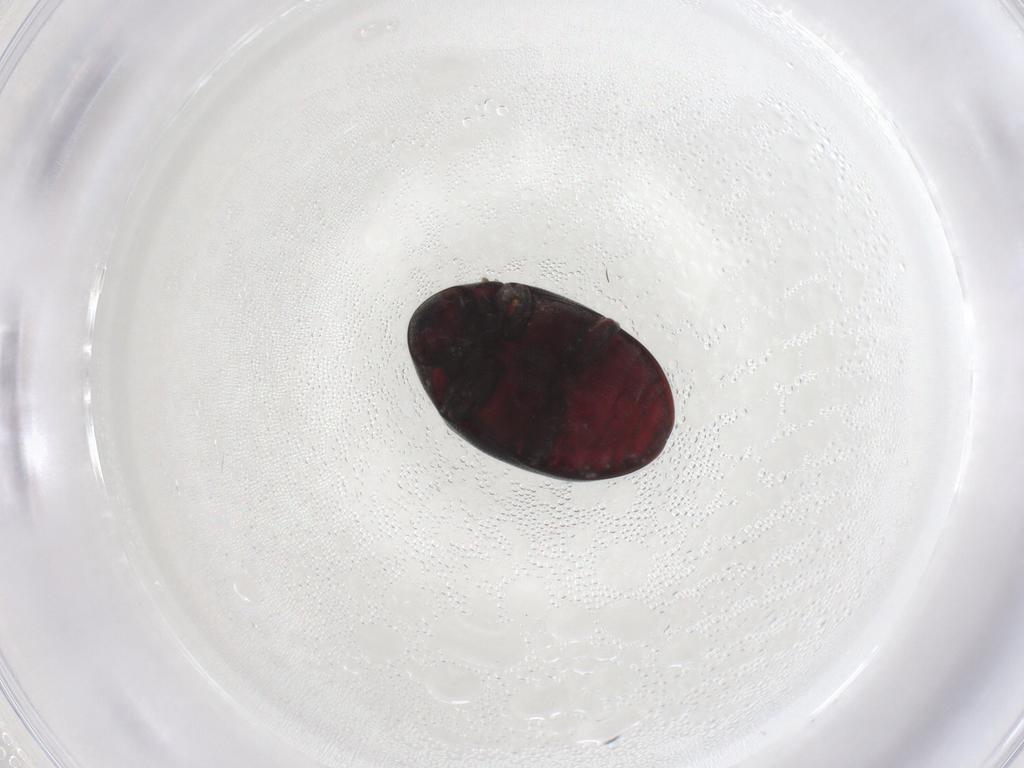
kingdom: Animalia
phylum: Arthropoda
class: Insecta
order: Coleoptera
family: Ptinidae
